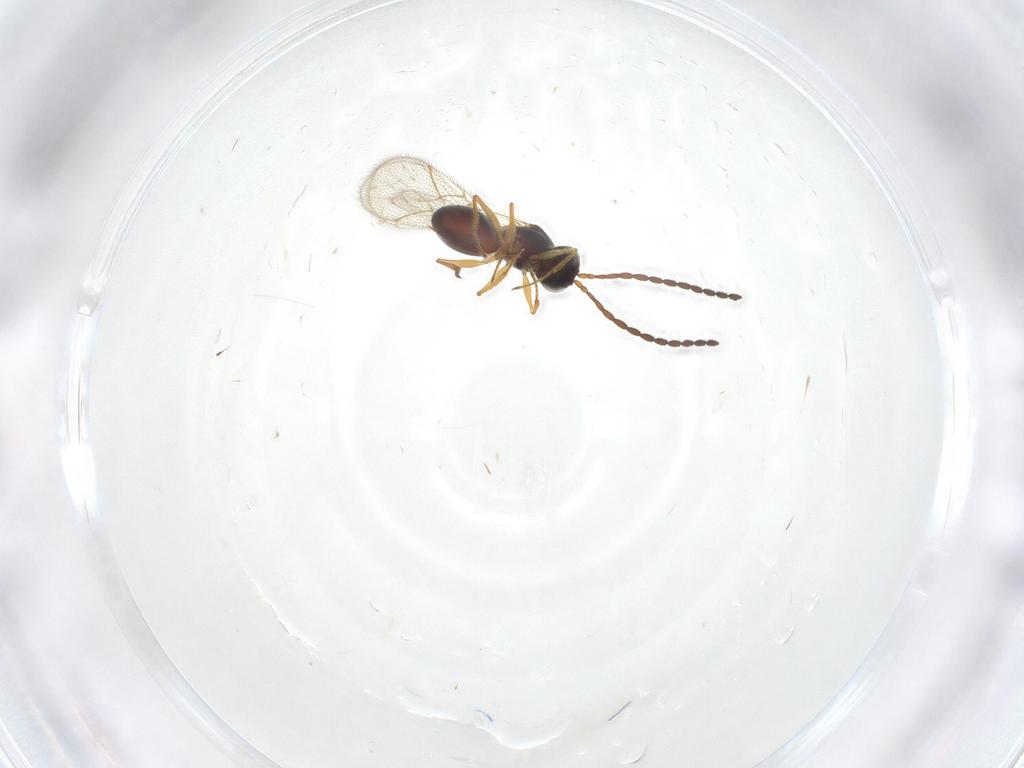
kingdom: Animalia
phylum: Arthropoda
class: Insecta
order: Hymenoptera
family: Figitidae
